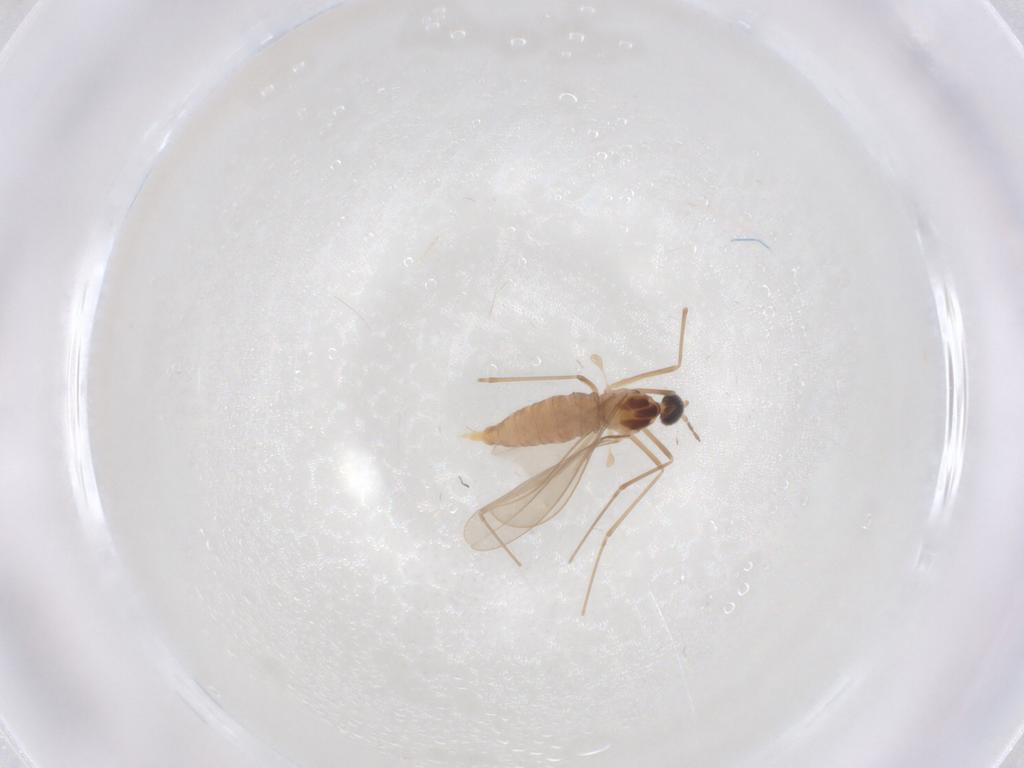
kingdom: Animalia
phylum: Arthropoda
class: Insecta
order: Diptera
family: Cecidomyiidae
